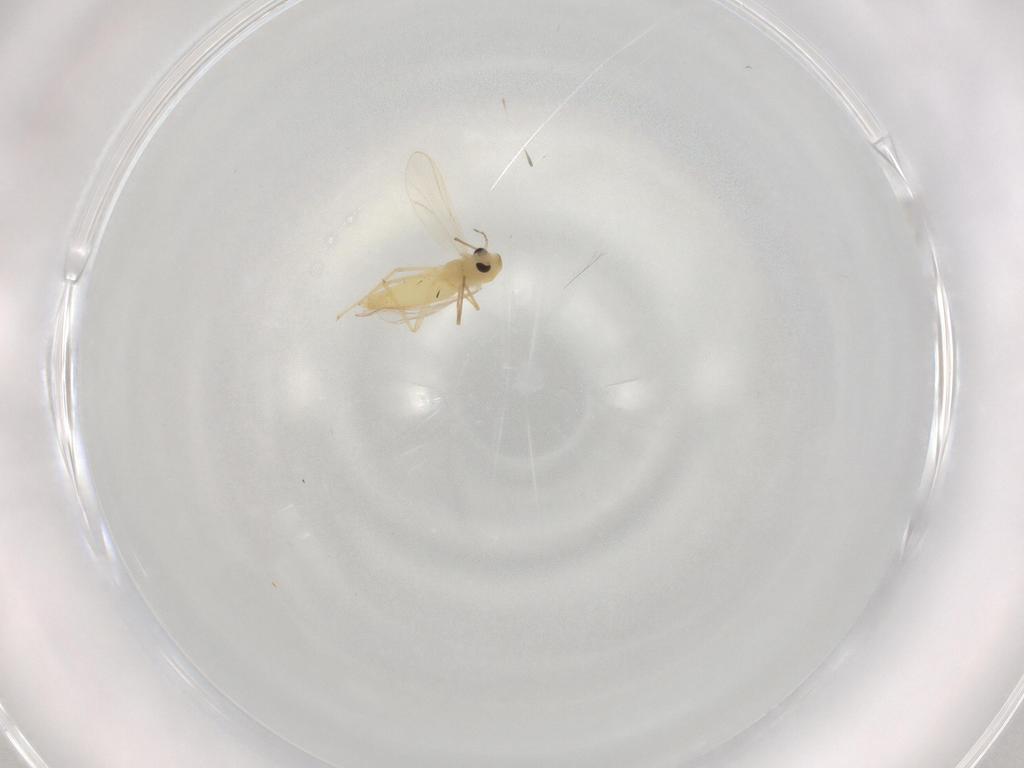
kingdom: Animalia
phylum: Arthropoda
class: Insecta
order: Diptera
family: Chironomidae
